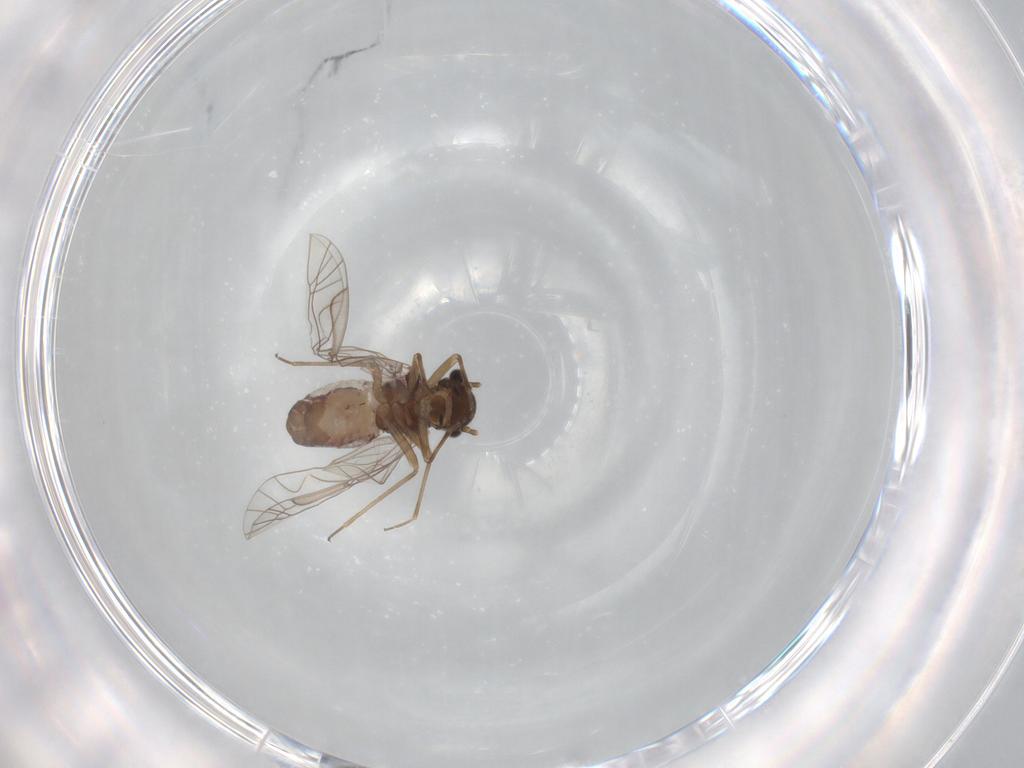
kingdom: Animalia
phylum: Arthropoda
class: Insecta
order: Psocodea
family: Lachesillidae
